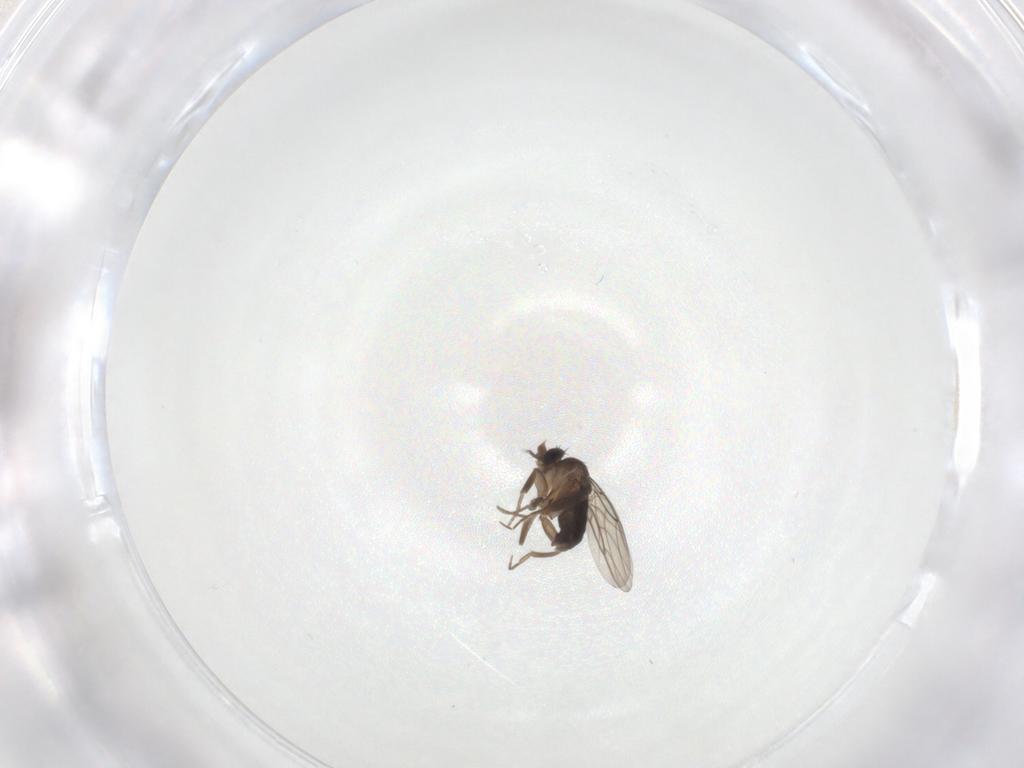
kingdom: Animalia
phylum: Arthropoda
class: Insecta
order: Diptera
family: Phoridae
